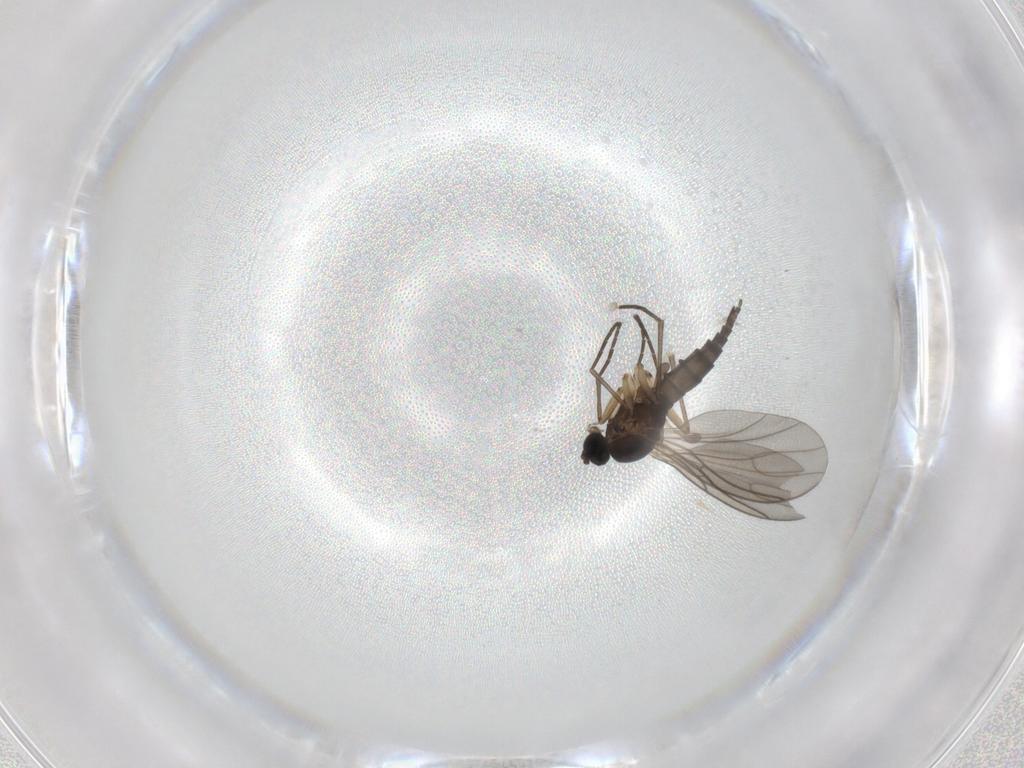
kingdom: Animalia
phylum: Arthropoda
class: Insecta
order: Diptera
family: Sciaridae
